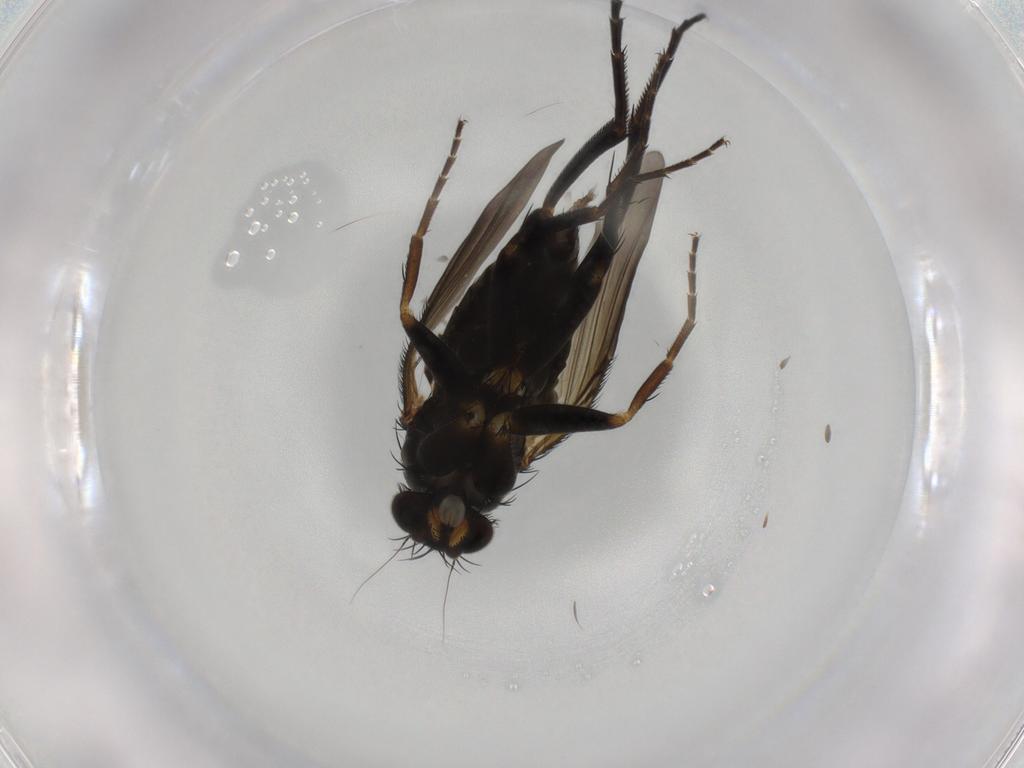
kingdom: Animalia
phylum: Arthropoda
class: Insecta
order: Diptera
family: Phoridae
